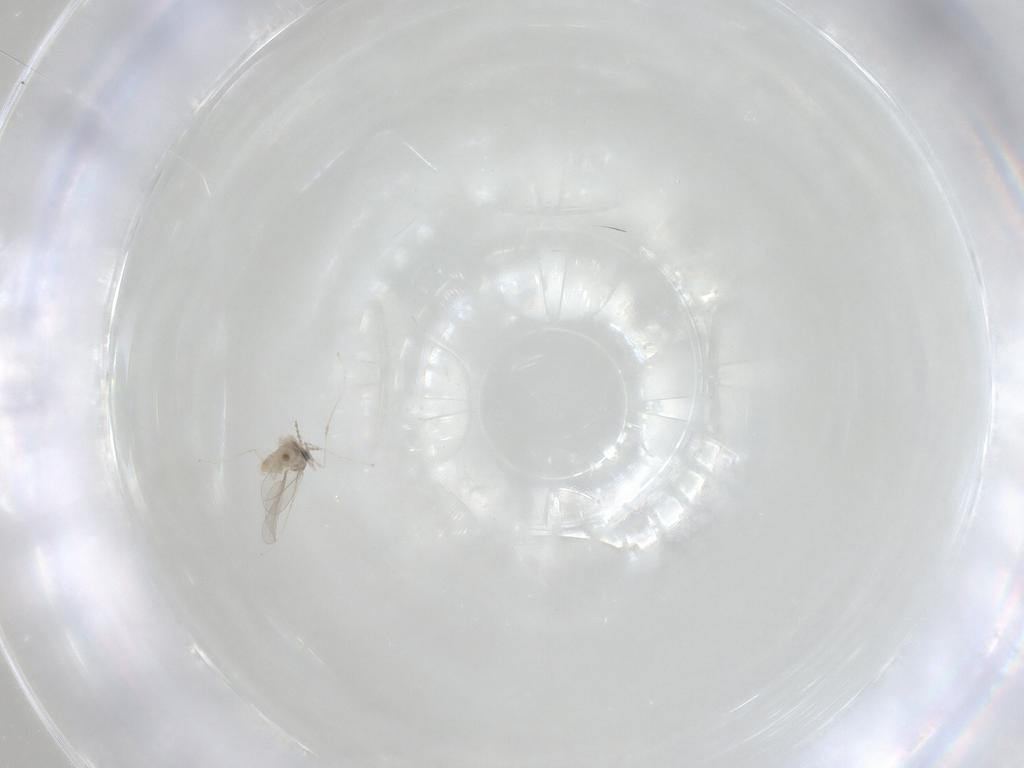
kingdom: Animalia
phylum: Arthropoda
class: Insecta
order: Diptera
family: Cecidomyiidae
